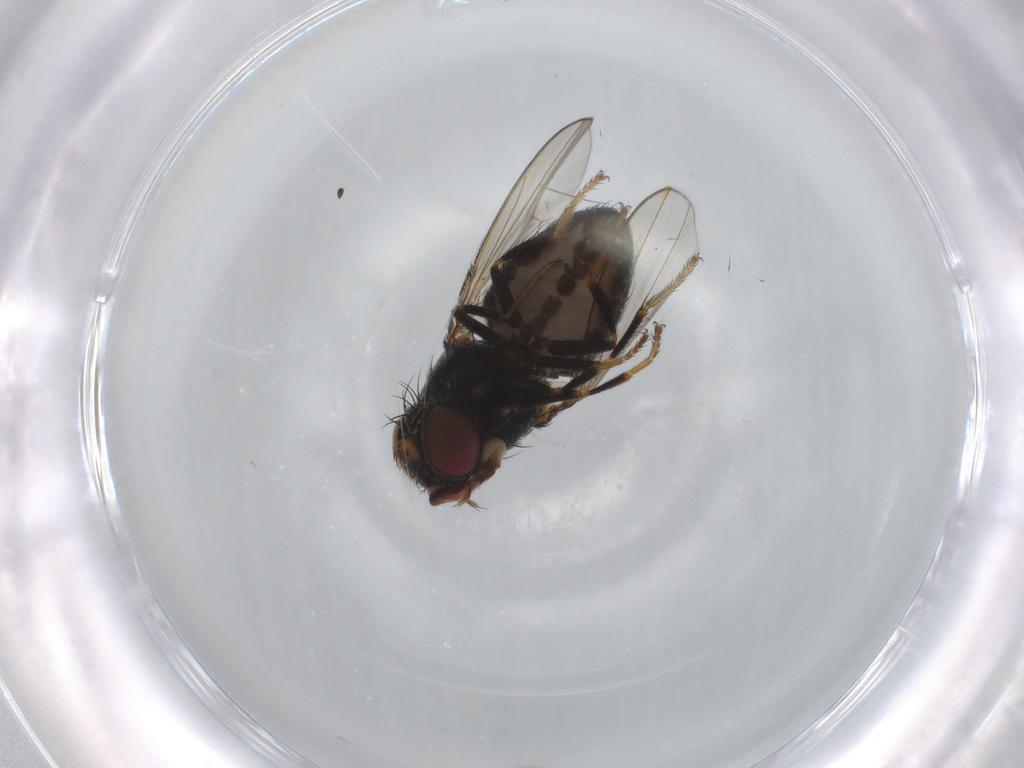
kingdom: Animalia
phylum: Arthropoda
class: Insecta
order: Diptera
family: Ephydridae
